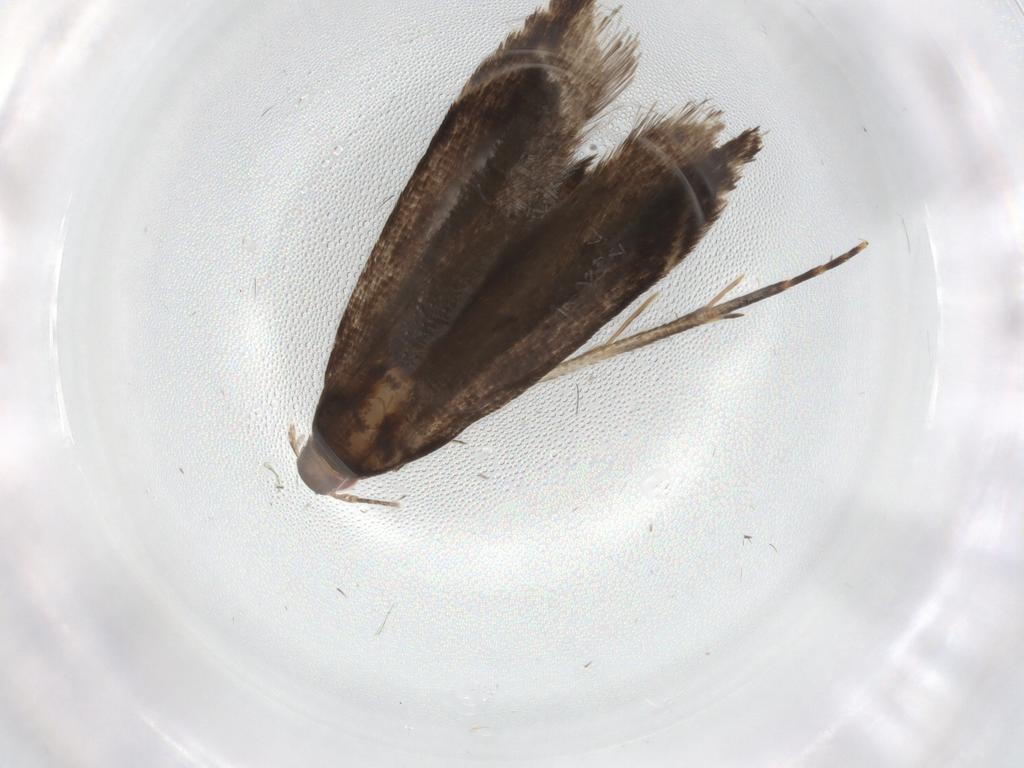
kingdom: Animalia
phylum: Arthropoda
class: Insecta
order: Lepidoptera
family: Gelechiidae
